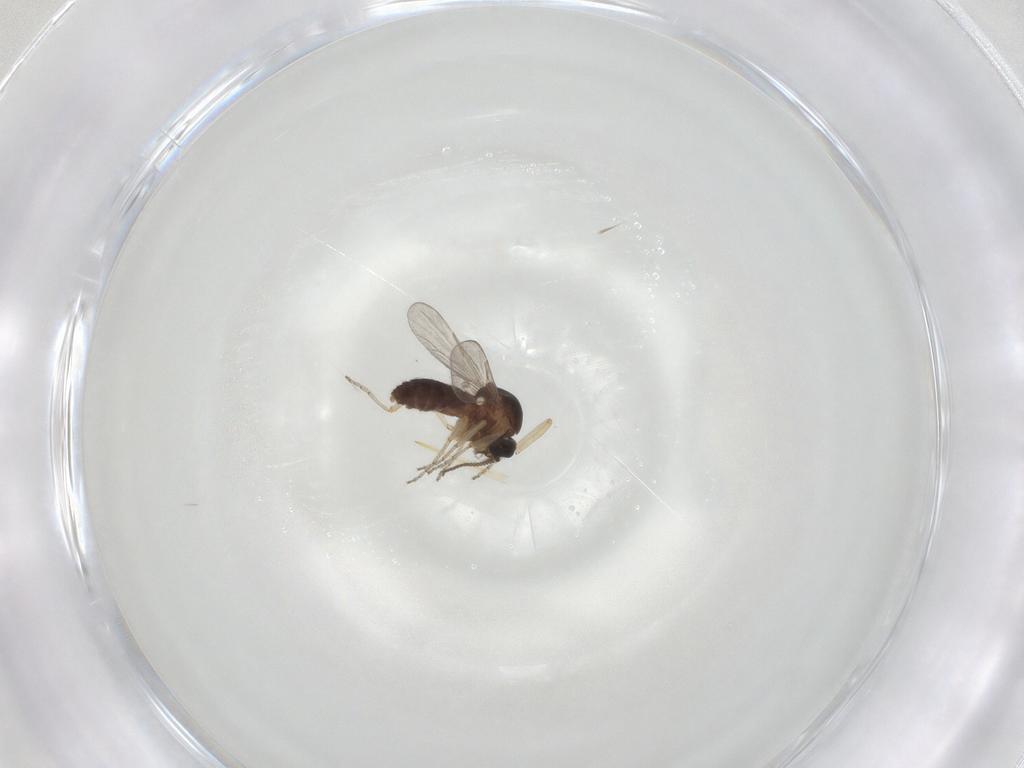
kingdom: Animalia
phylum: Arthropoda
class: Insecta
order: Diptera
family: Ceratopogonidae
